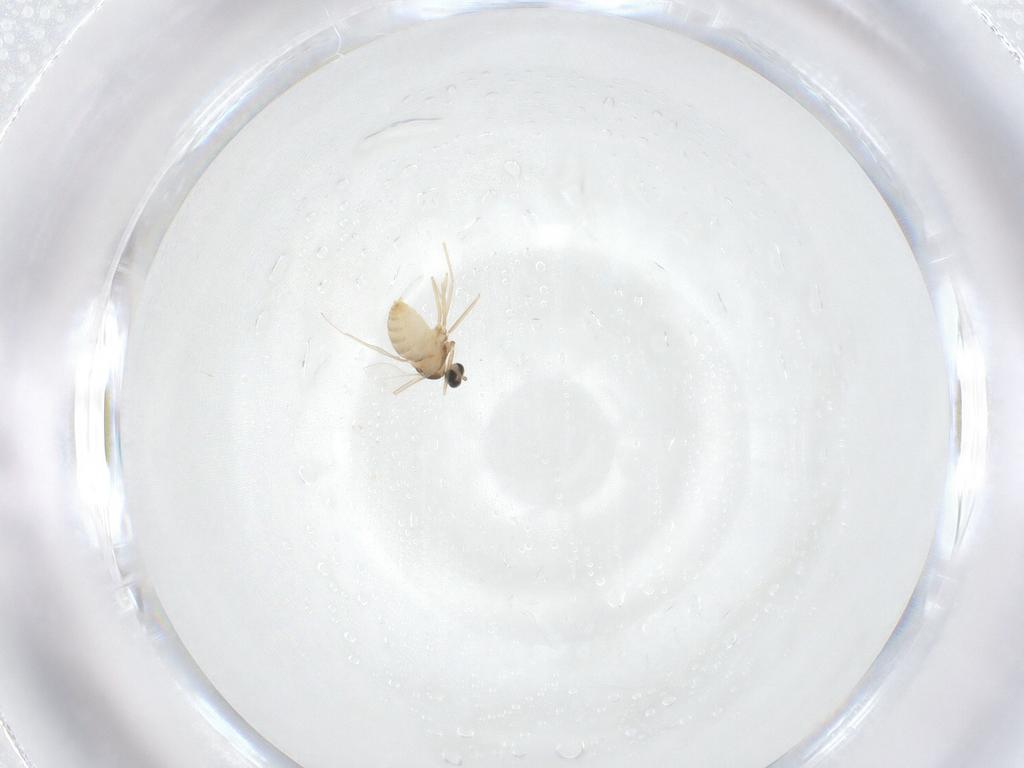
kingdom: Animalia
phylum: Arthropoda
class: Insecta
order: Diptera
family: Cecidomyiidae
